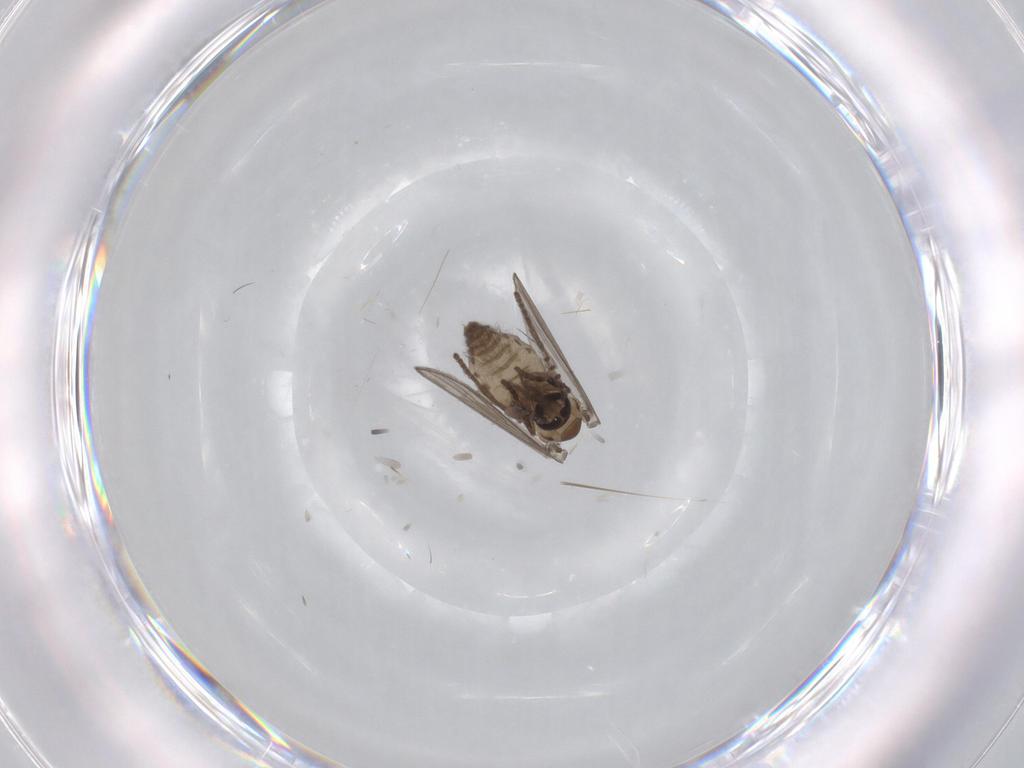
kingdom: Animalia
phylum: Arthropoda
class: Insecta
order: Diptera
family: Psychodidae
